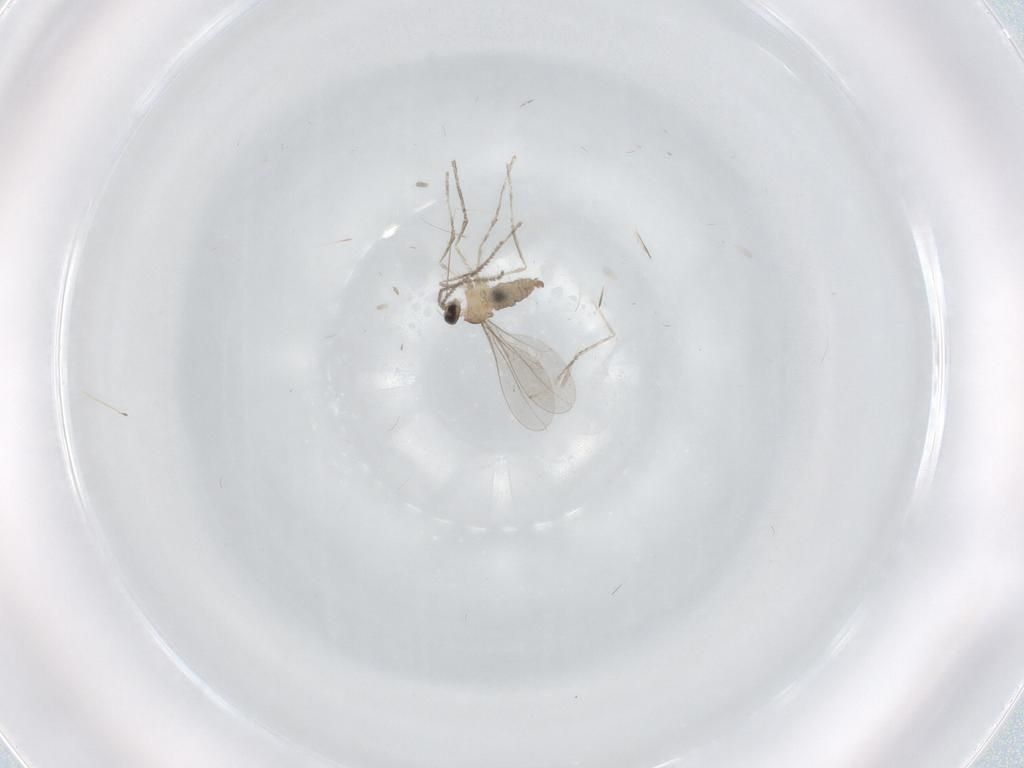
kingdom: Animalia
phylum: Arthropoda
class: Insecta
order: Diptera
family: Cecidomyiidae
